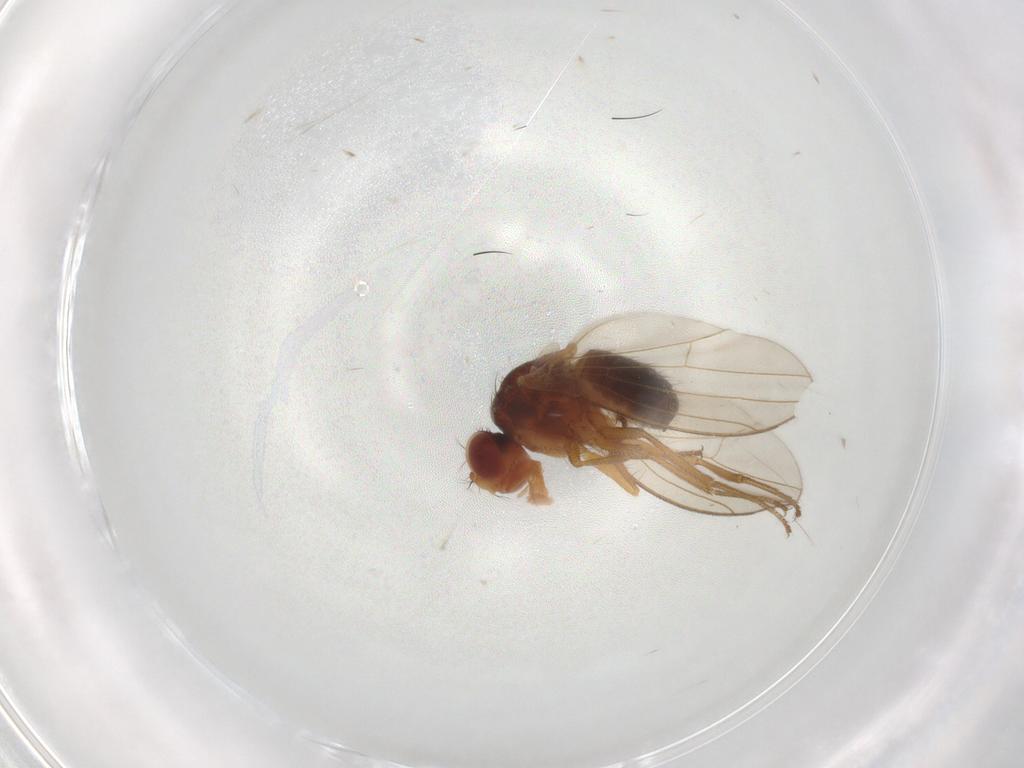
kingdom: Animalia
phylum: Arthropoda
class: Insecta
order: Diptera
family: Drosophilidae
